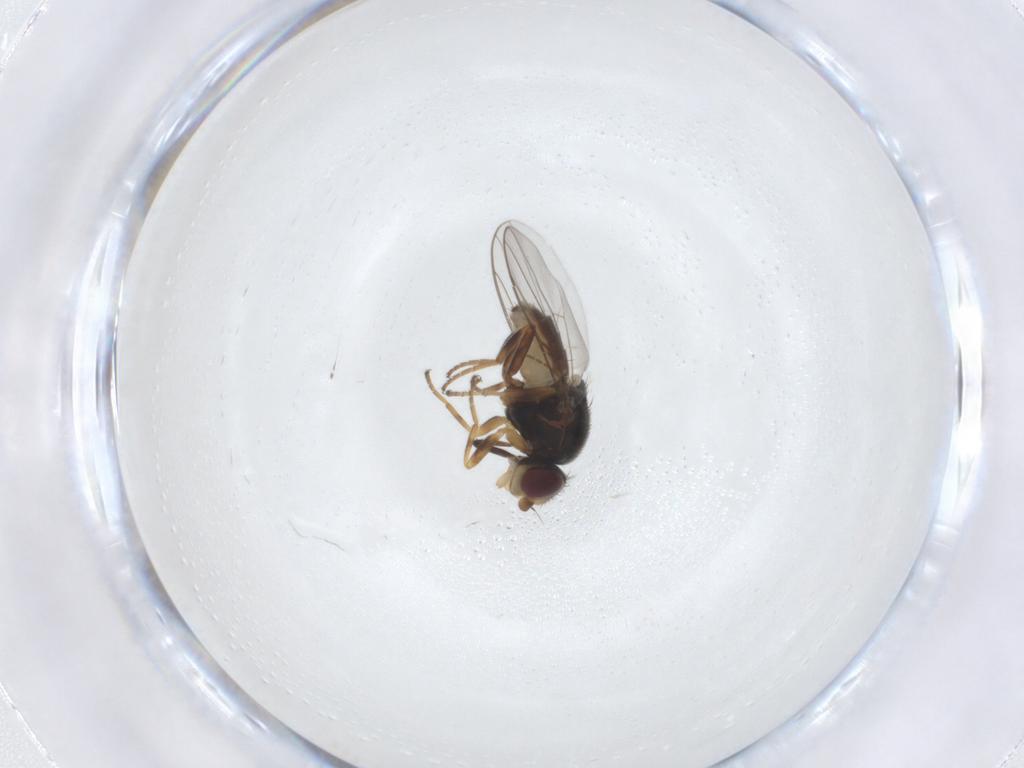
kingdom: Animalia
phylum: Arthropoda
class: Insecta
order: Diptera
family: Chloropidae
